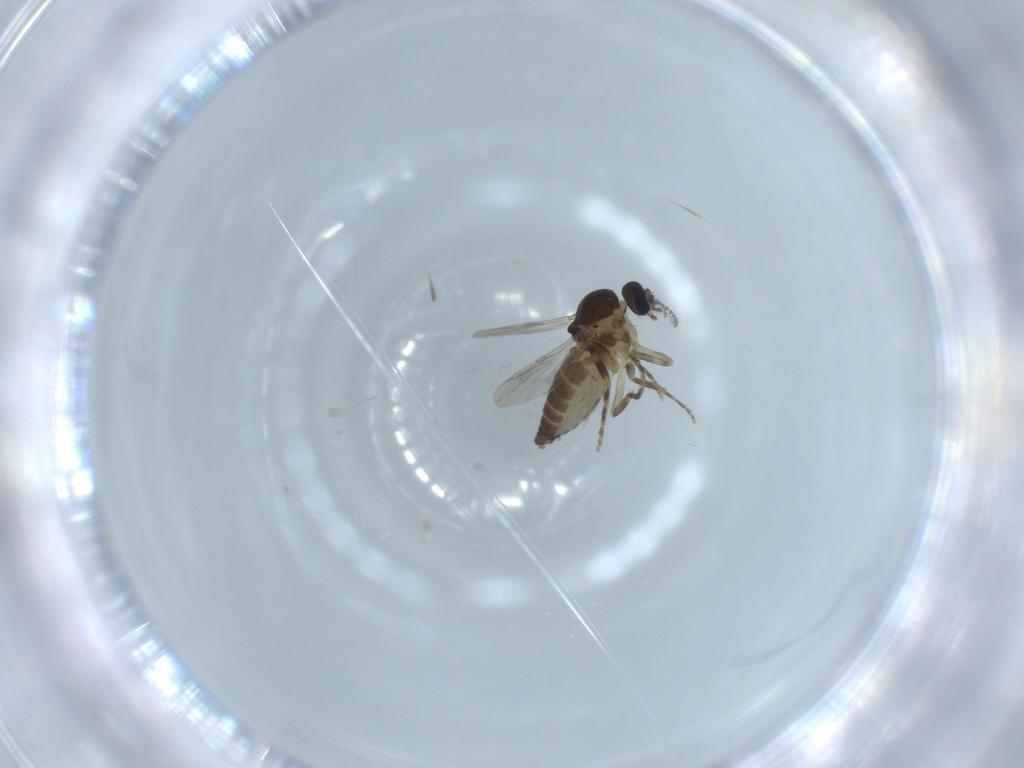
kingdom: Animalia
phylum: Arthropoda
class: Insecta
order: Diptera
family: Ceratopogonidae
